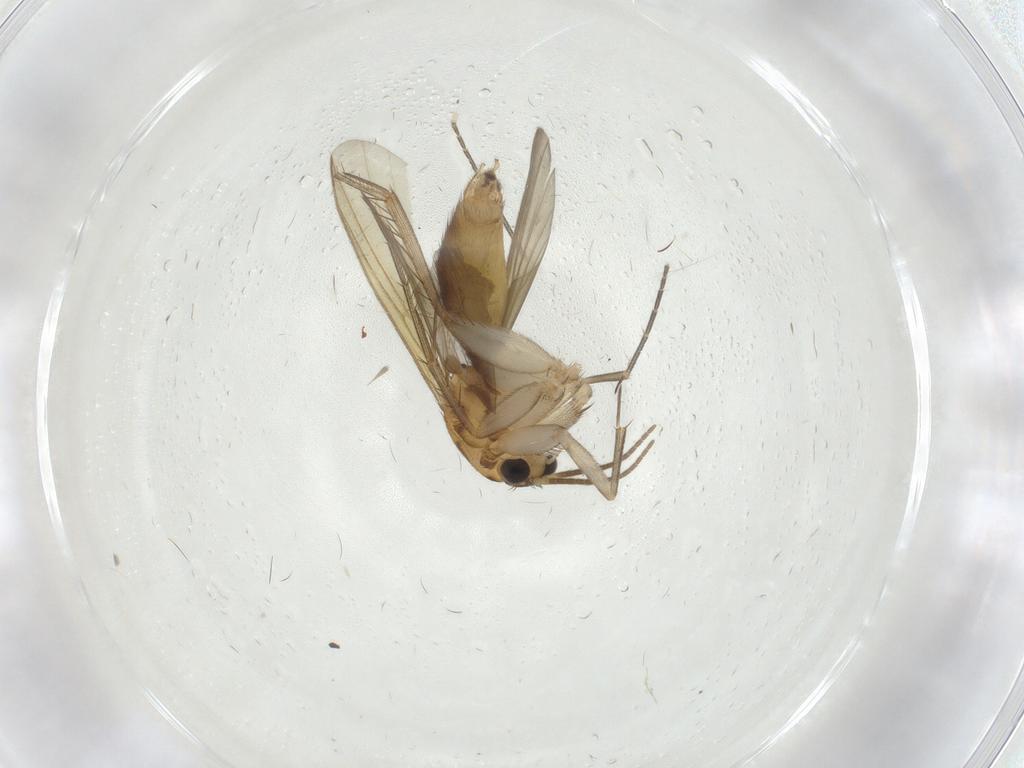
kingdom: Animalia
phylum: Arthropoda
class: Insecta
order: Diptera
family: Mycetophilidae
